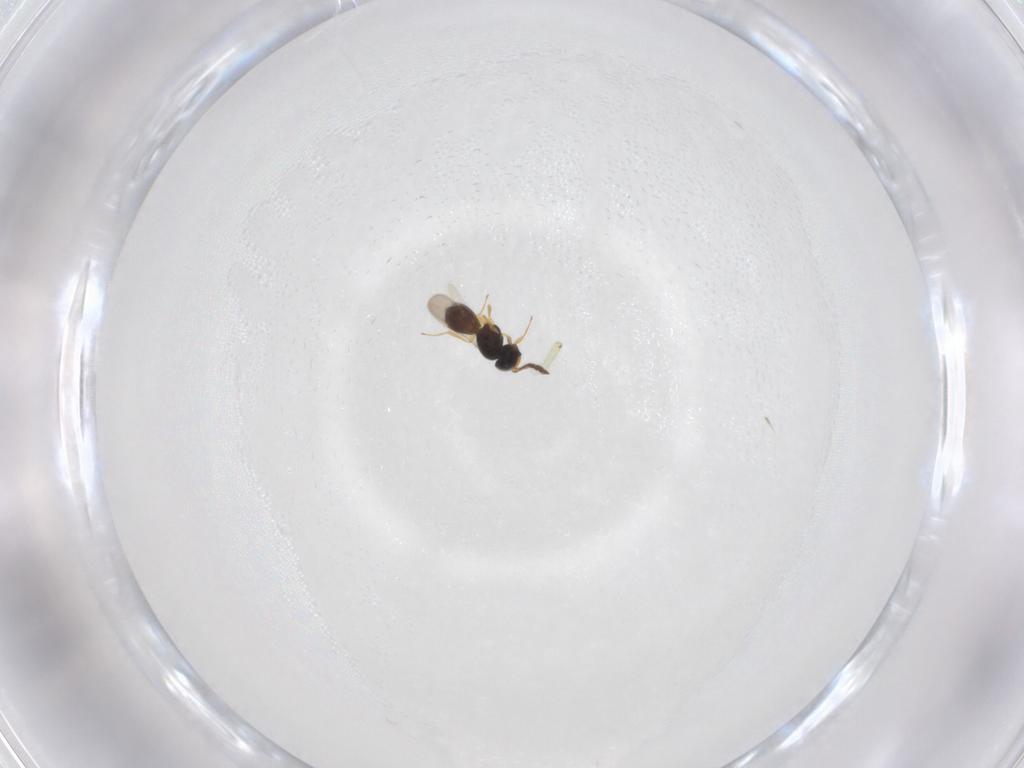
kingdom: Animalia
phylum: Arthropoda
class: Insecta
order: Hymenoptera
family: Scelionidae
